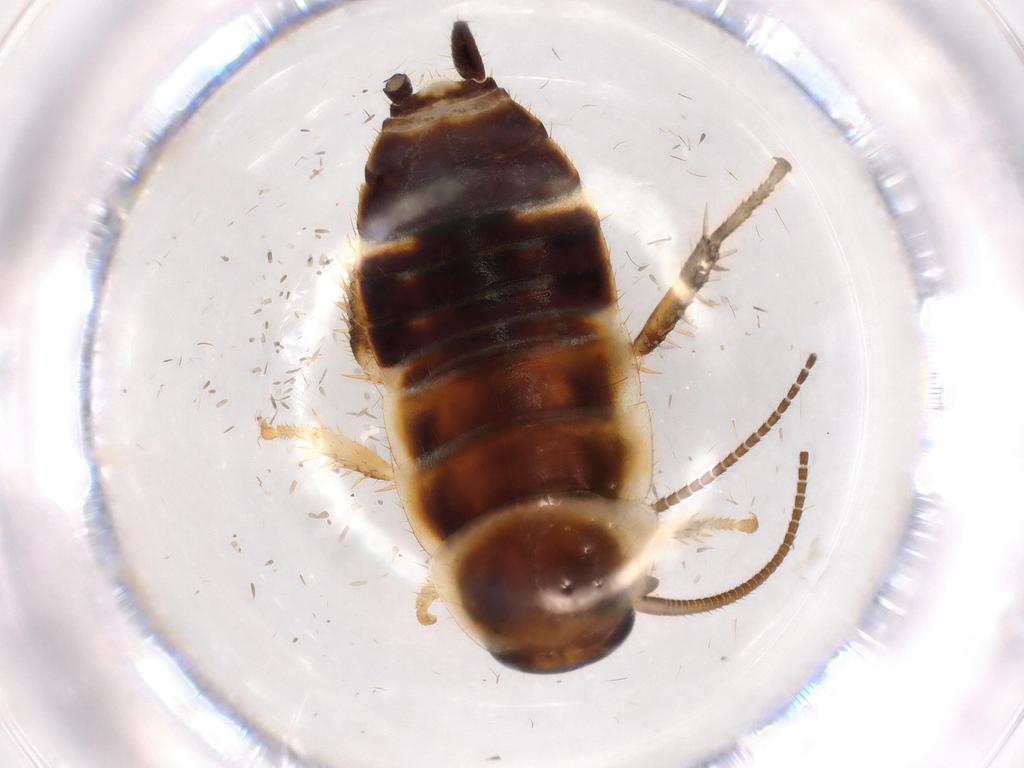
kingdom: Animalia
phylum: Arthropoda
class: Insecta
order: Blattodea
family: Ectobiidae
